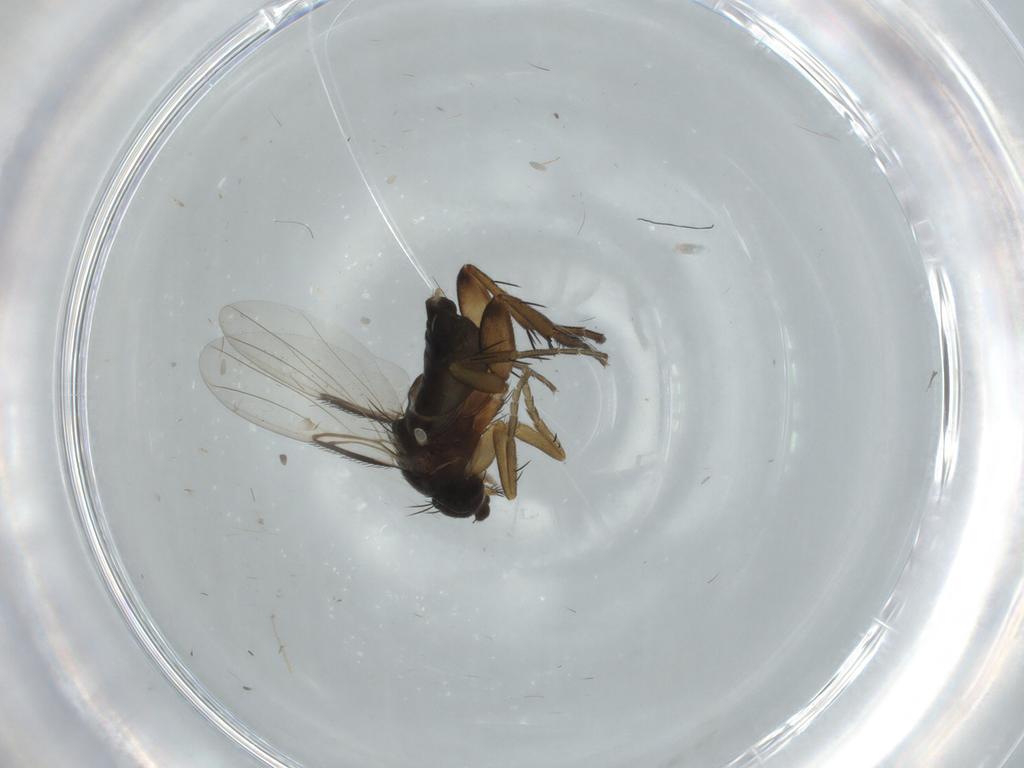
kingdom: Animalia
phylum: Arthropoda
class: Insecta
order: Diptera
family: Phoridae
